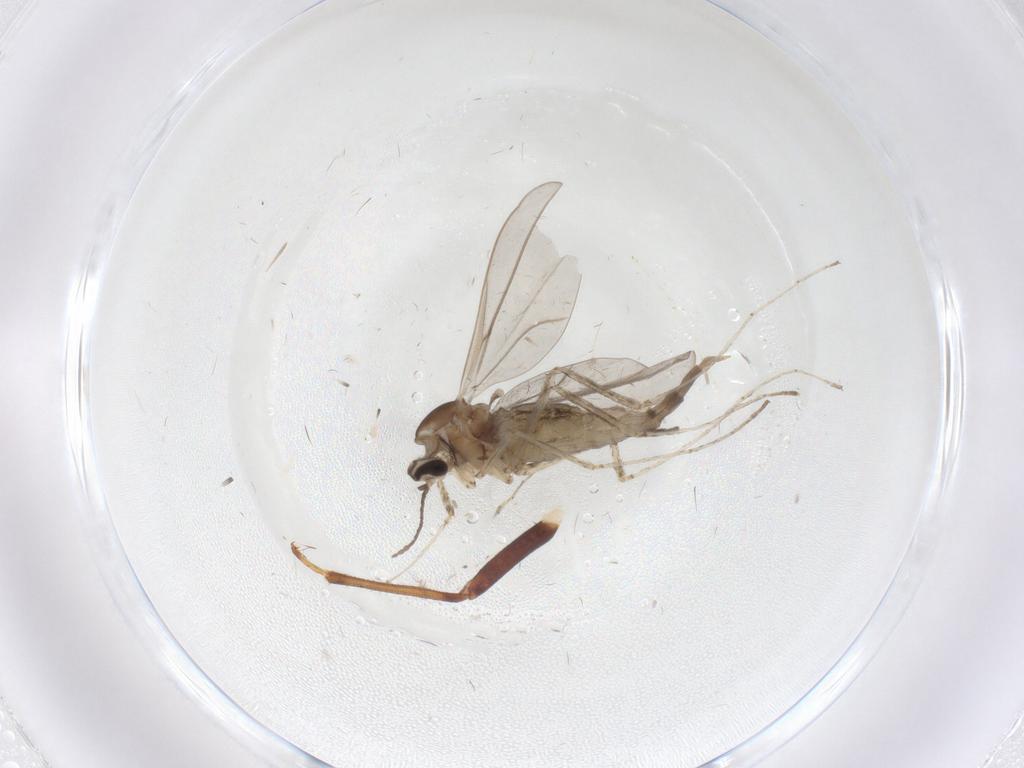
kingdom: Animalia
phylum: Arthropoda
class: Insecta
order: Diptera
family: Cecidomyiidae
